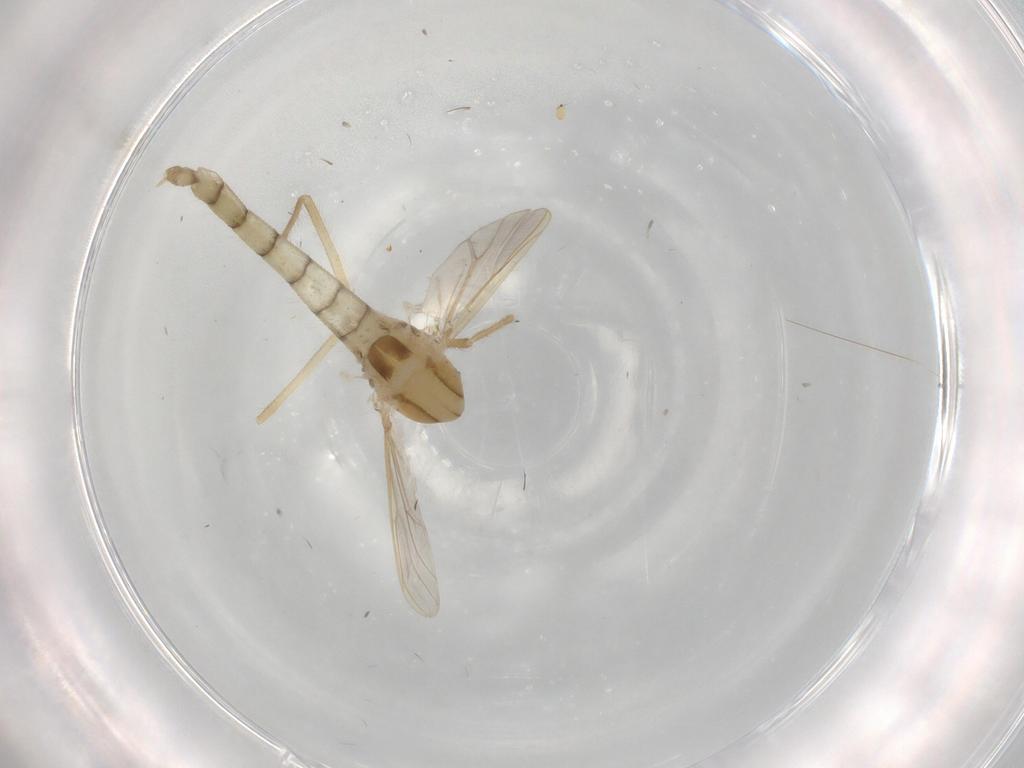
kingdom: Animalia
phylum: Arthropoda
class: Insecta
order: Diptera
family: Chironomidae
